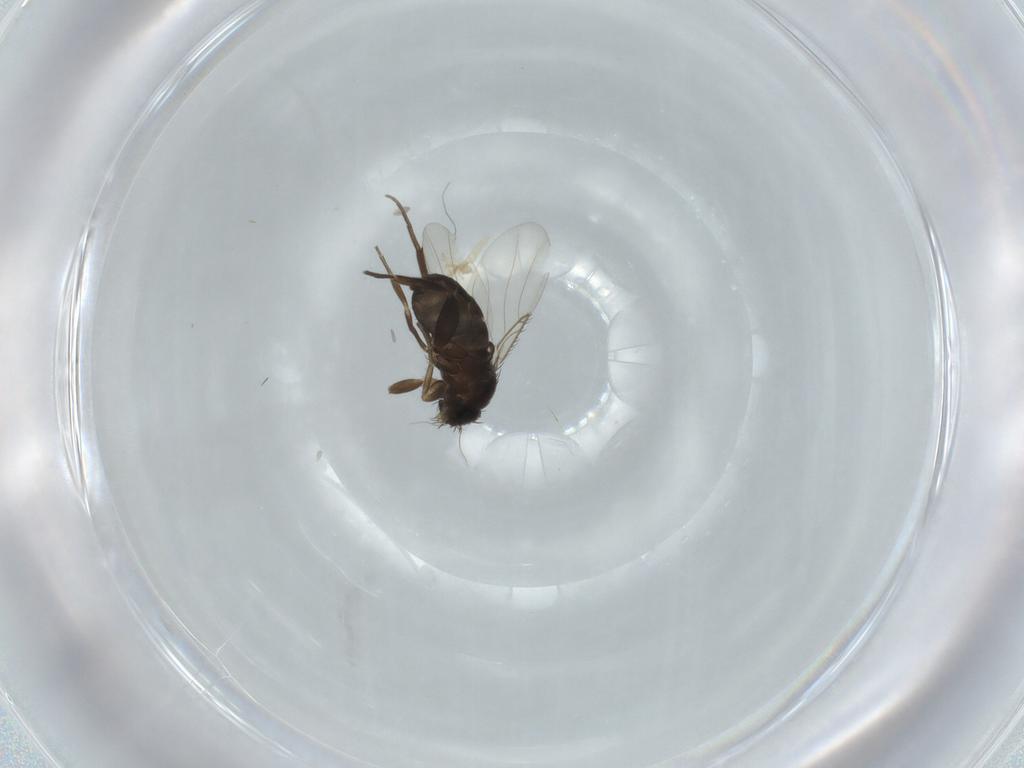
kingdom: Animalia
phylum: Arthropoda
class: Insecta
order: Diptera
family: Phoridae
